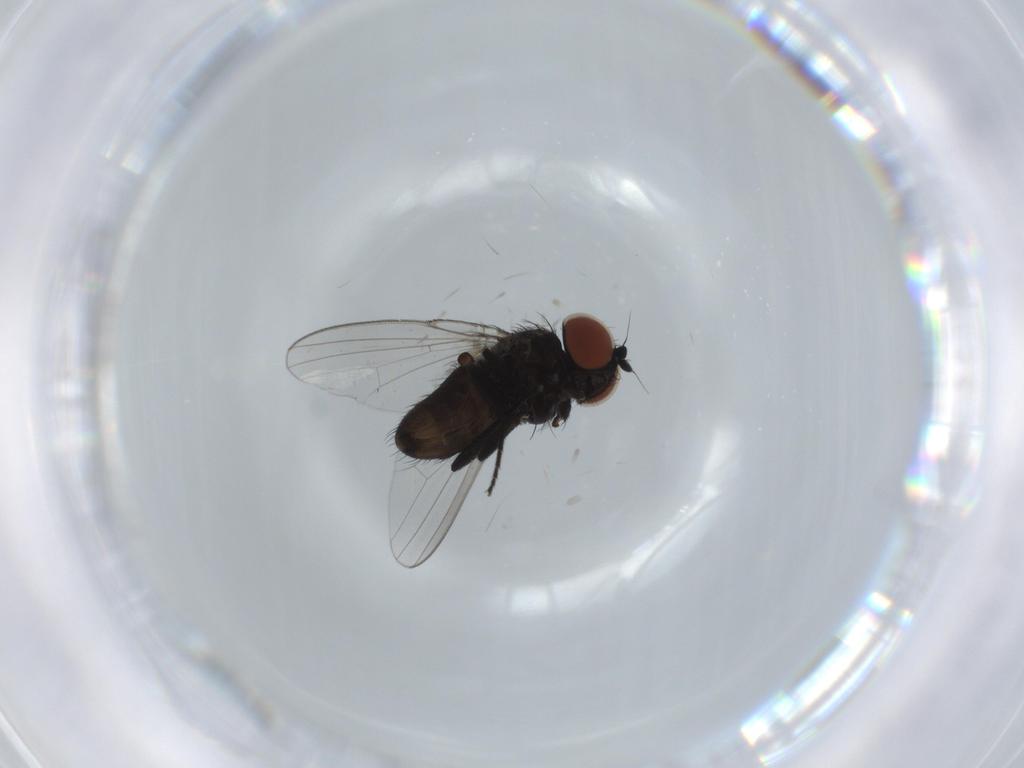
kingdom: Animalia
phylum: Arthropoda
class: Insecta
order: Diptera
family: Milichiidae
